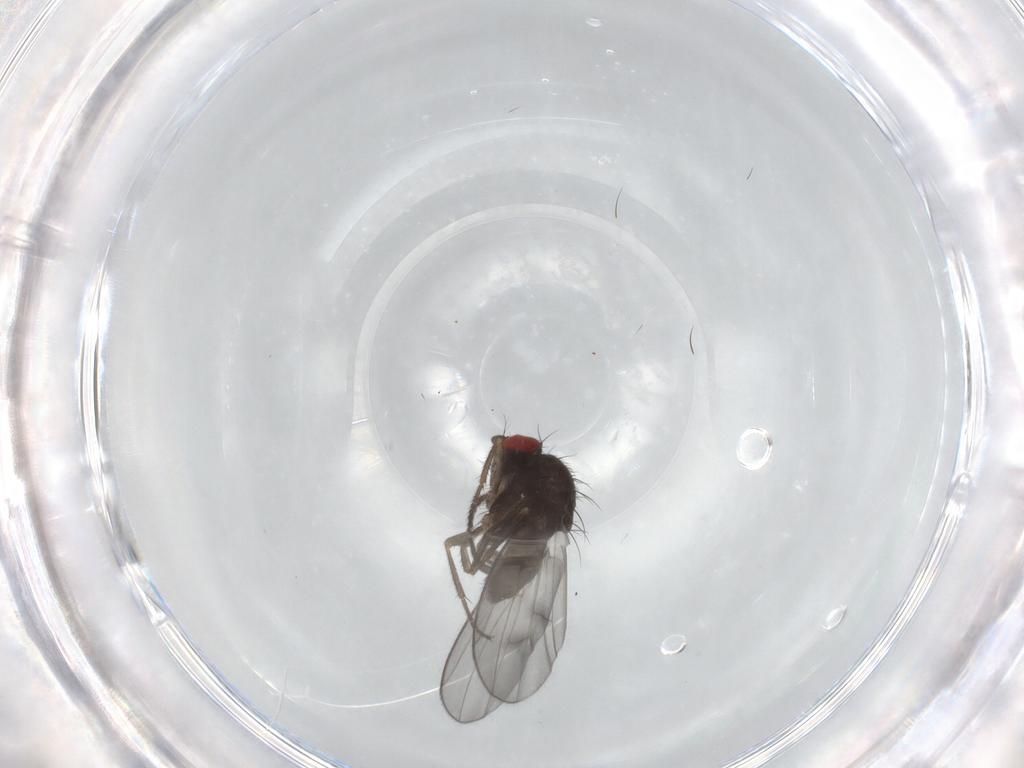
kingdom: Animalia
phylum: Arthropoda
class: Insecta
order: Diptera
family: Drosophilidae
